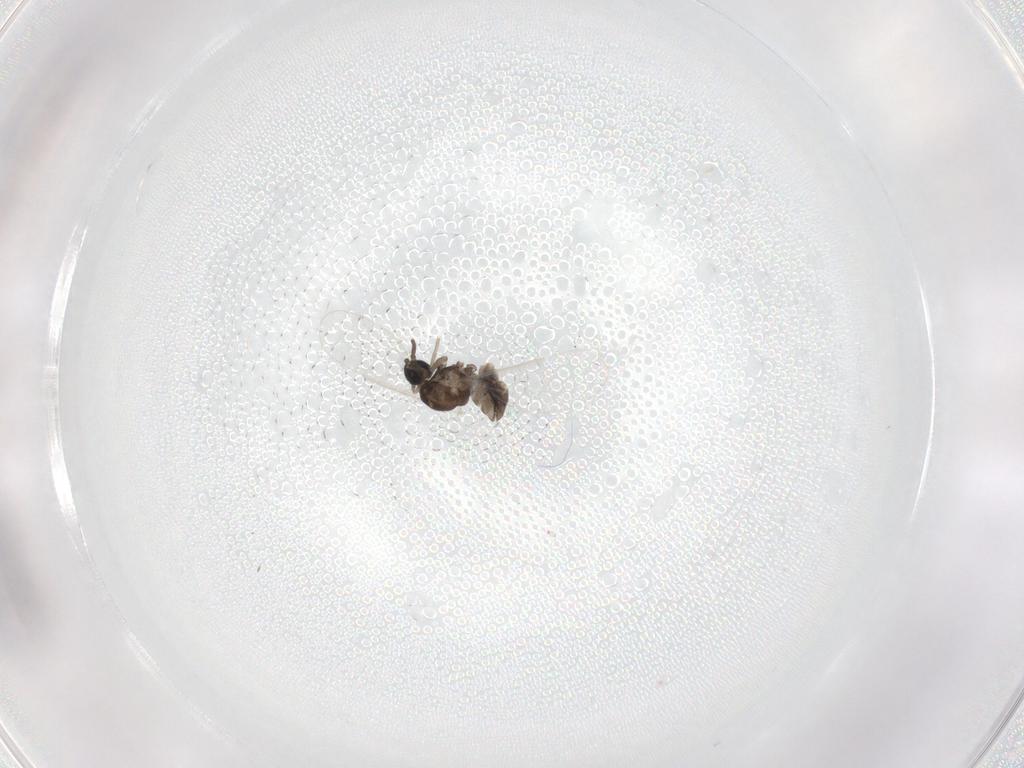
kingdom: Animalia
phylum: Arthropoda
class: Insecta
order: Diptera
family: Cecidomyiidae
